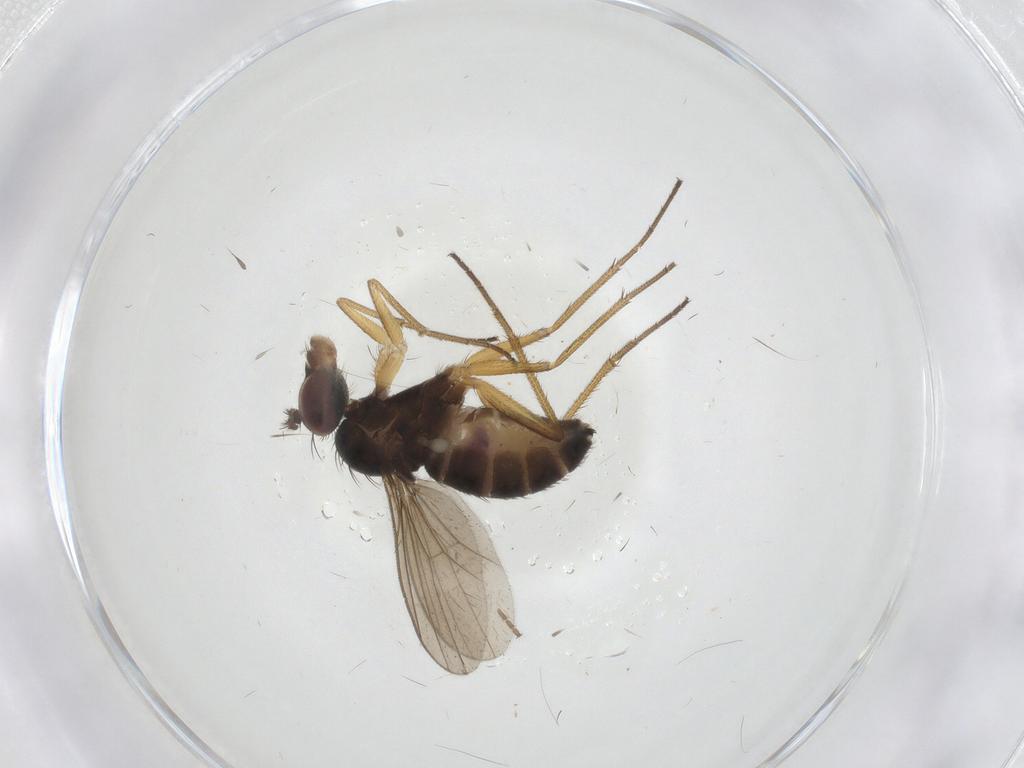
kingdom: Animalia
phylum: Arthropoda
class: Insecta
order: Diptera
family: Dolichopodidae
